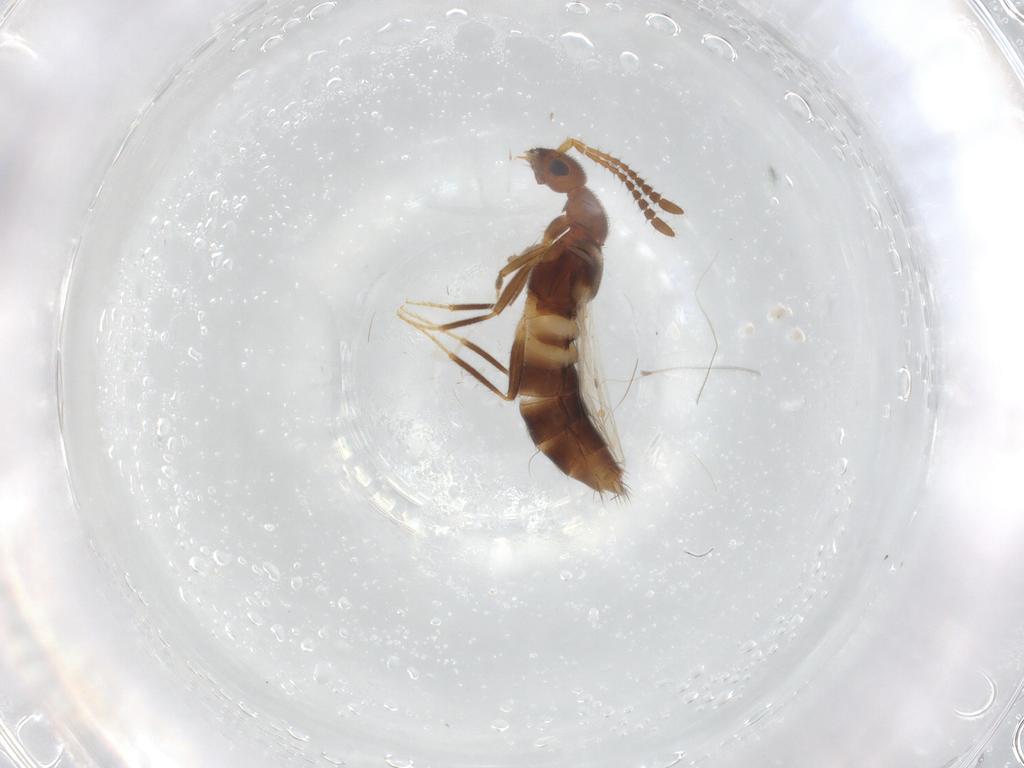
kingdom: Animalia
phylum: Arthropoda
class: Insecta
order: Coleoptera
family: Staphylinidae
